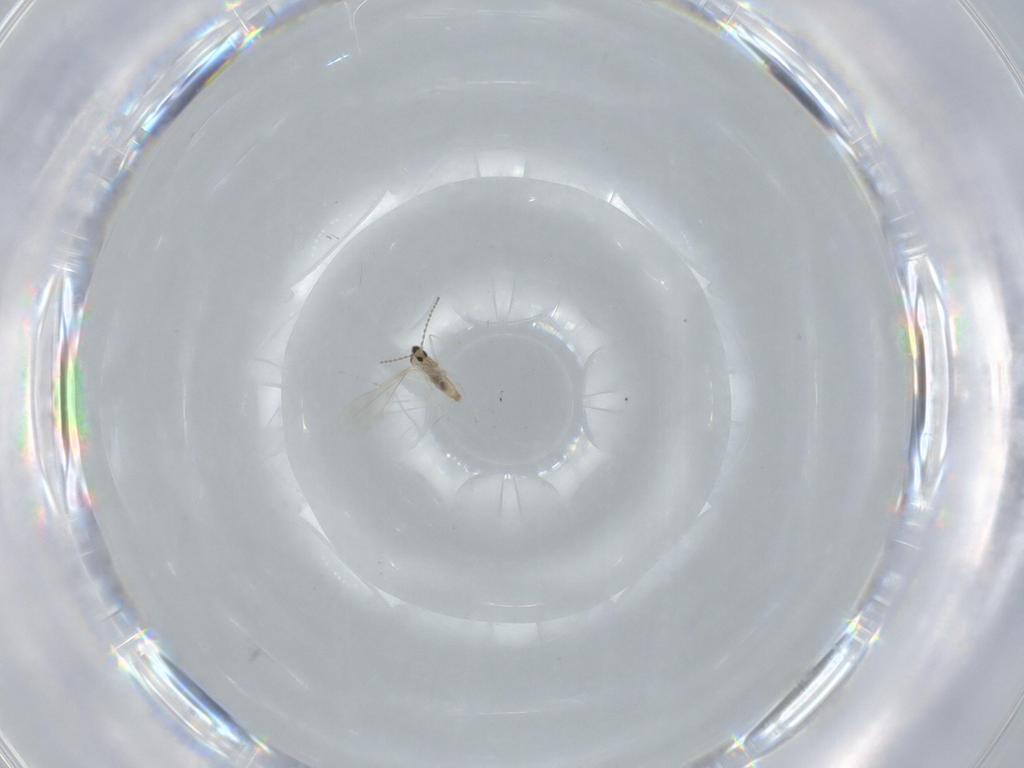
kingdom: Animalia
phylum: Arthropoda
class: Insecta
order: Diptera
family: Sciaridae
